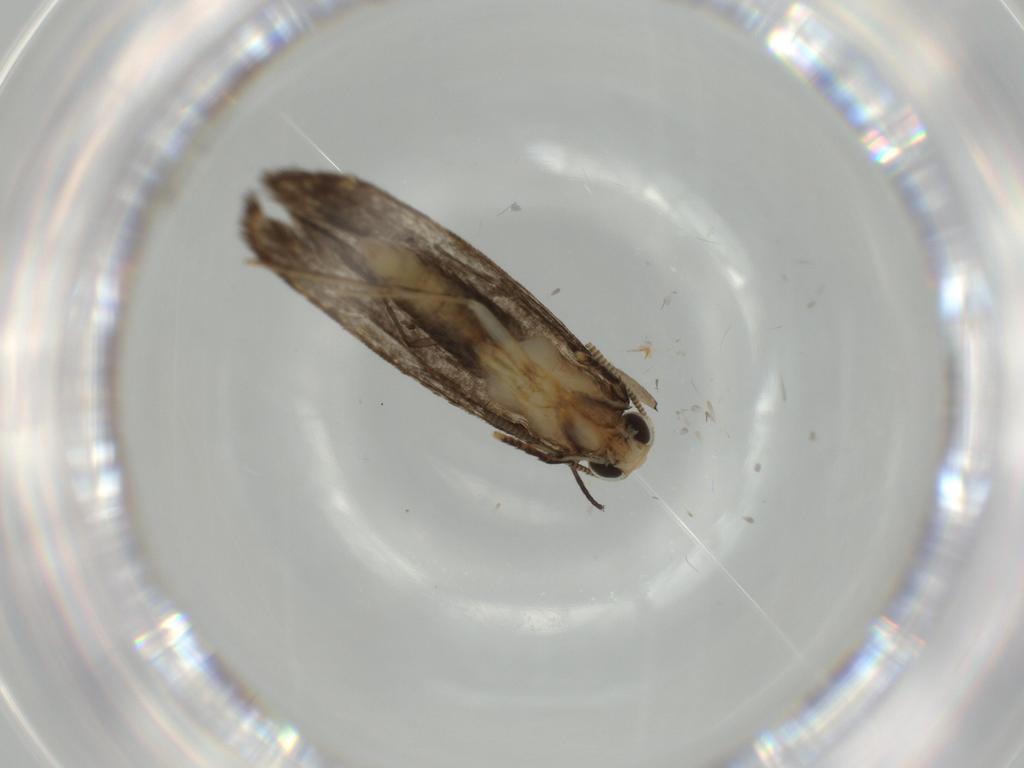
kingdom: Animalia
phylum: Arthropoda
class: Insecta
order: Lepidoptera
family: Tineidae
